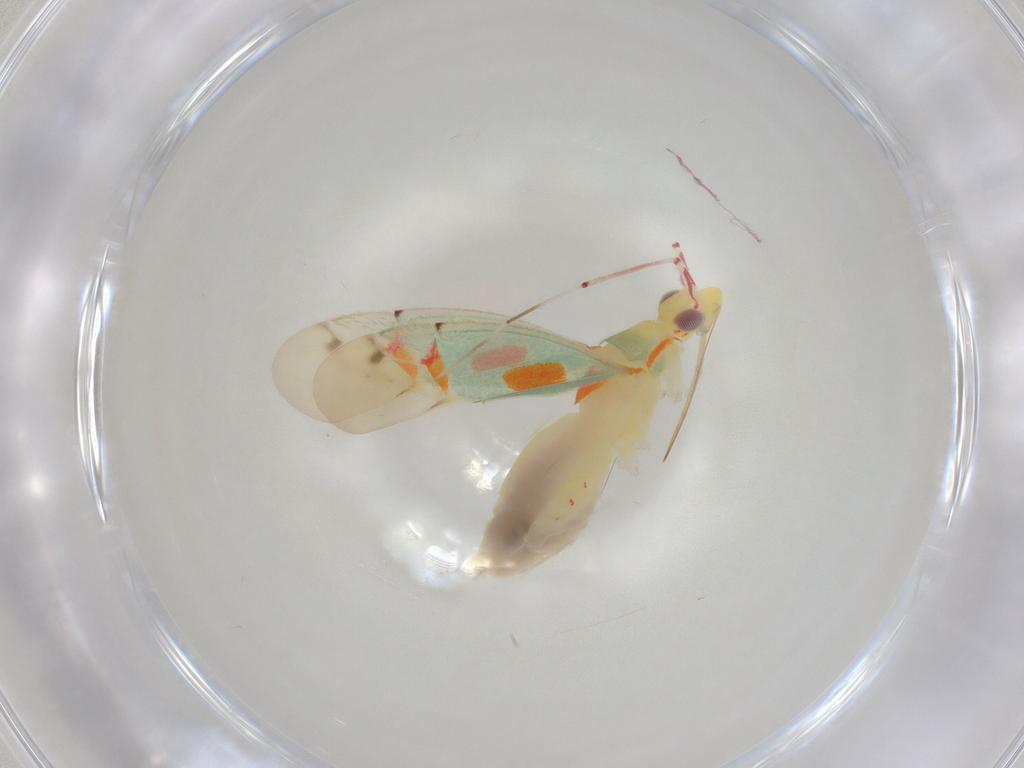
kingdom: Animalia
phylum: Arthropoda
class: Insecta
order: Hemiptera
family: Miridae
